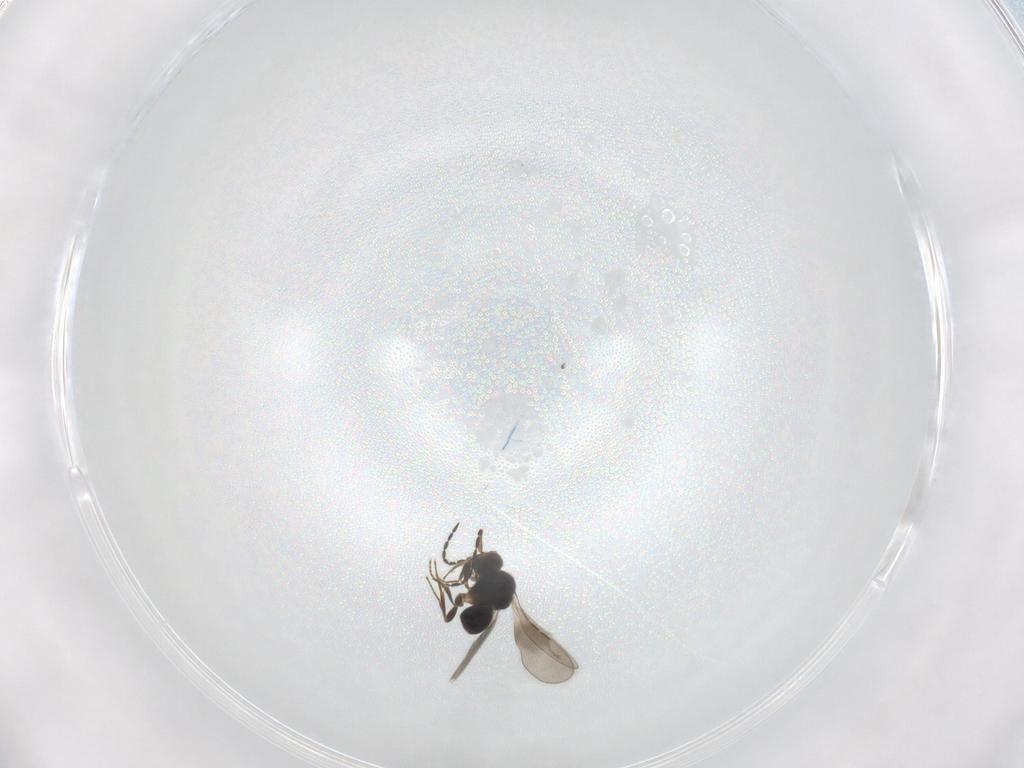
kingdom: Animalia
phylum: Arthropoda
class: Insecta
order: Hymenoptera
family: Ceraphronidae
